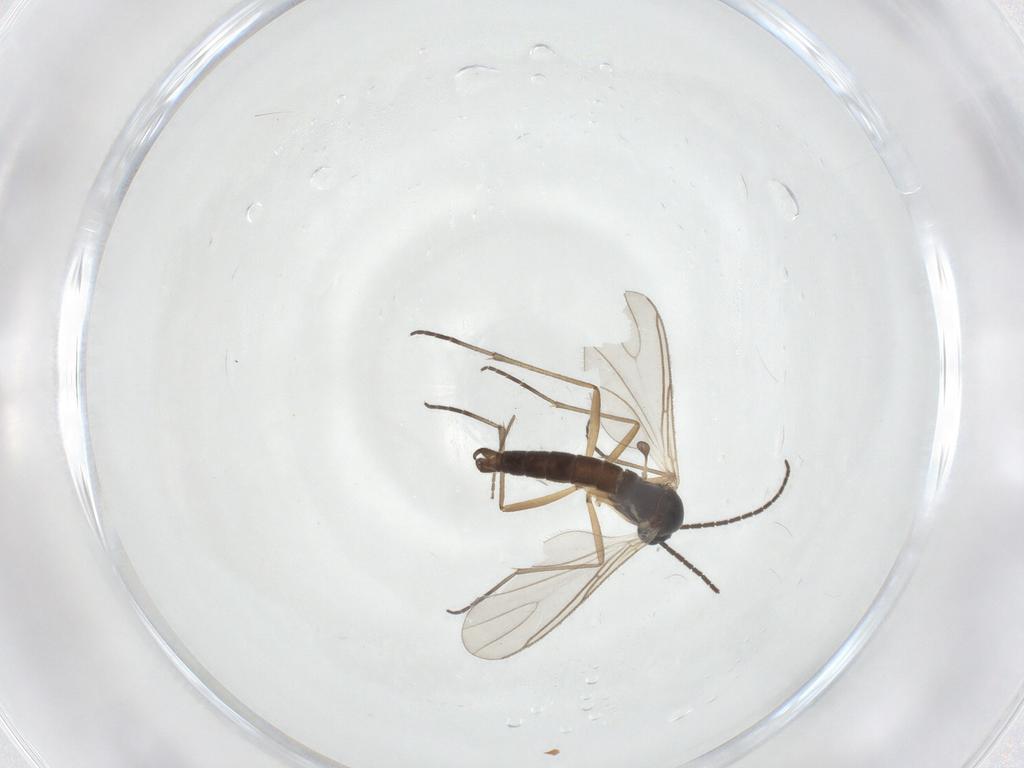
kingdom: Animalia
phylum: Arthropoda
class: Insecta
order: Diptera
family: Sciaridae
